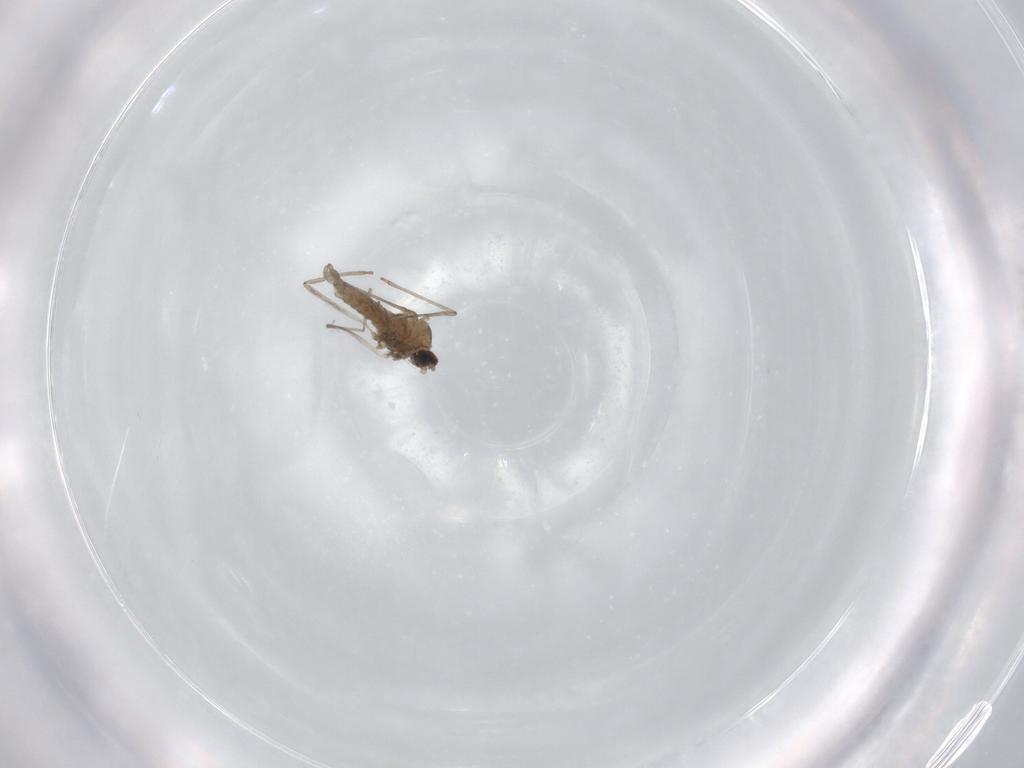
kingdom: Animalia
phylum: Arthropoda
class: Insecta
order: Diptera
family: Cecidomyiidae
